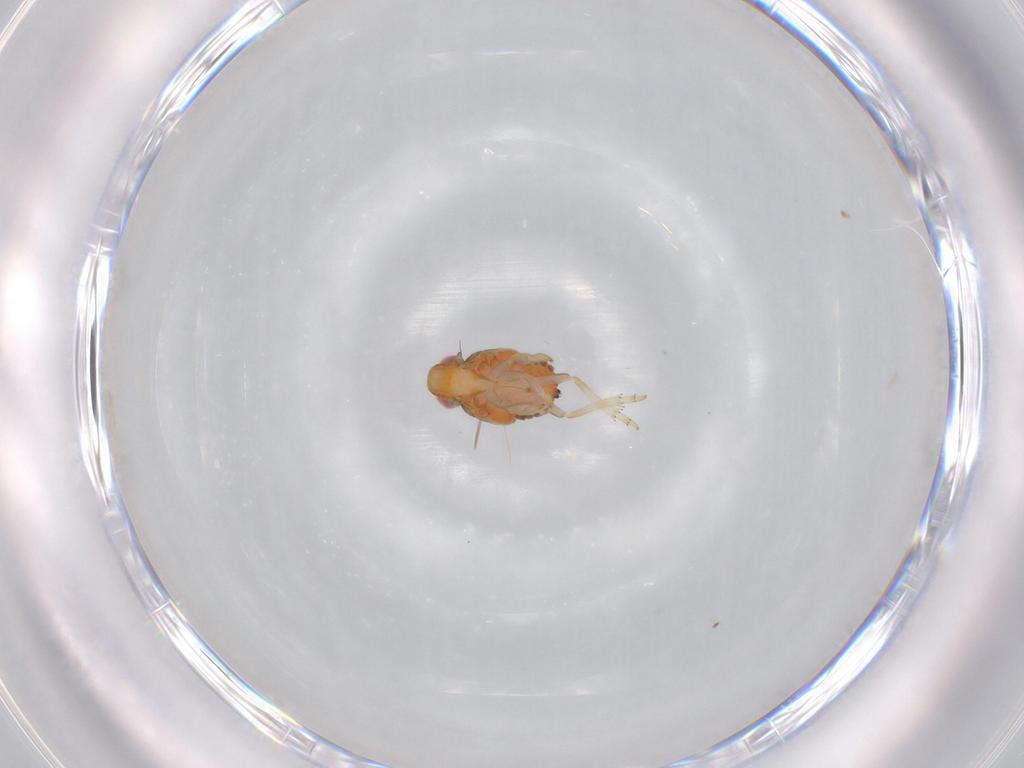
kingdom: Animalia
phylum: Arthropoda
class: Insecta
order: Hemiptera
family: Issidae
